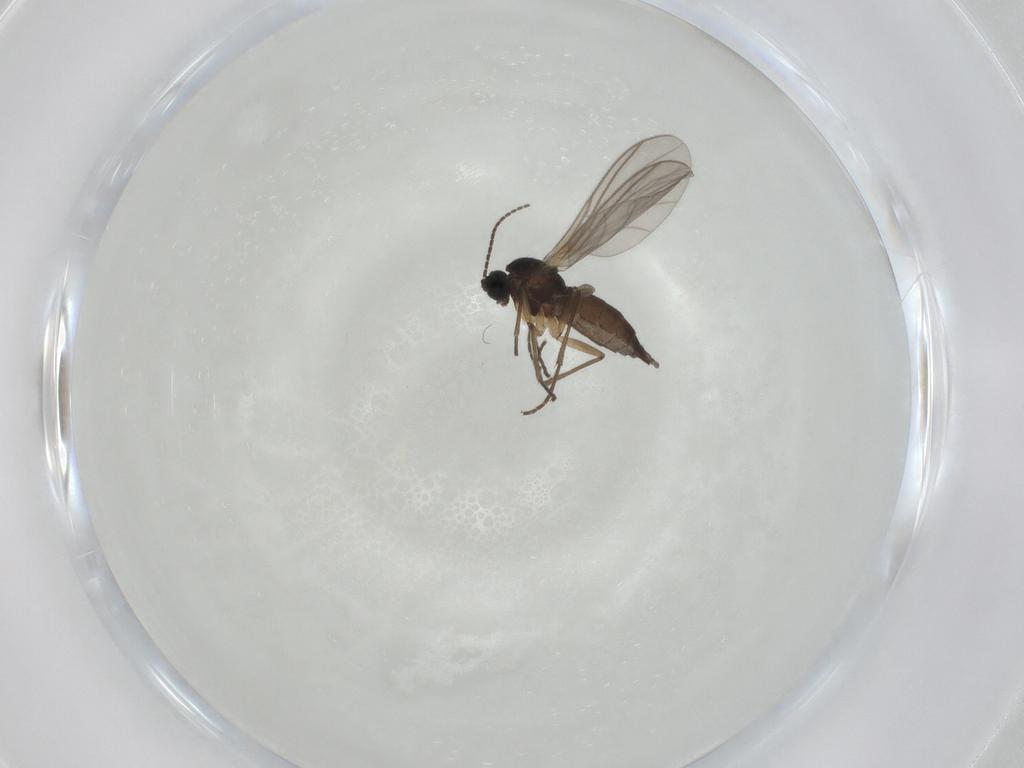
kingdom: Animalia
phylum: Arthropoda
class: Insecta
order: Diptera
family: Sciaridae
